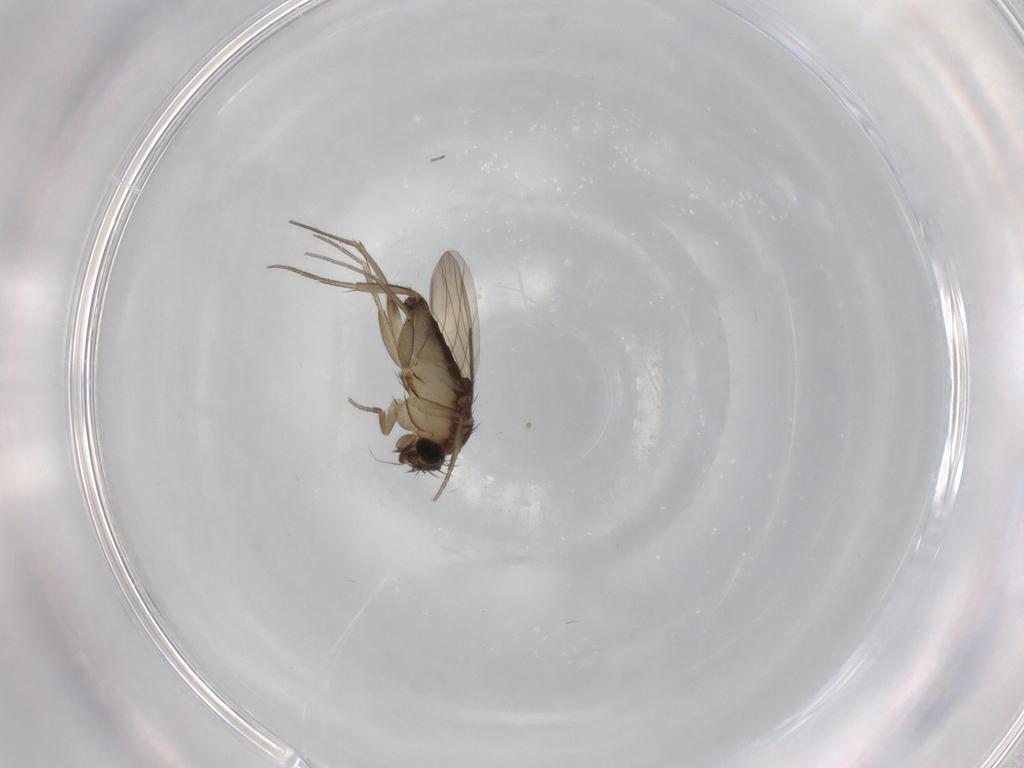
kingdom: Animalia
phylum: Arthropoda
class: Insecta
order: Diptera
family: Phoridae
